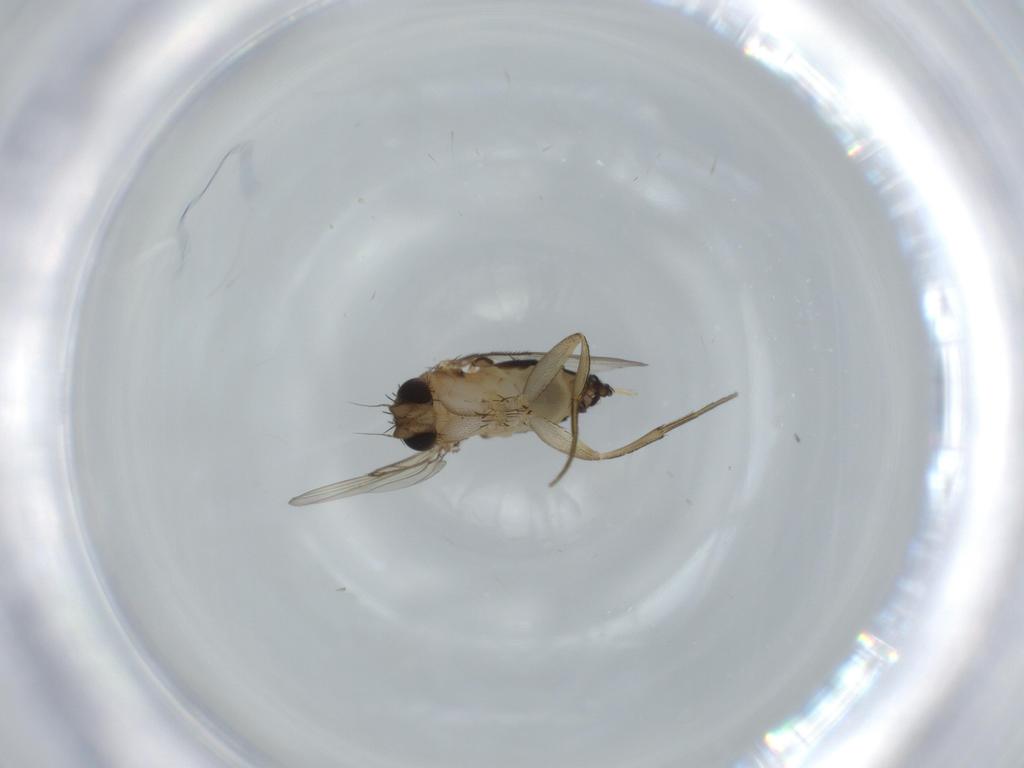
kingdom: Animalia
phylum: Arthropoda
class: Insecta
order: Diptera
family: Phoridae
